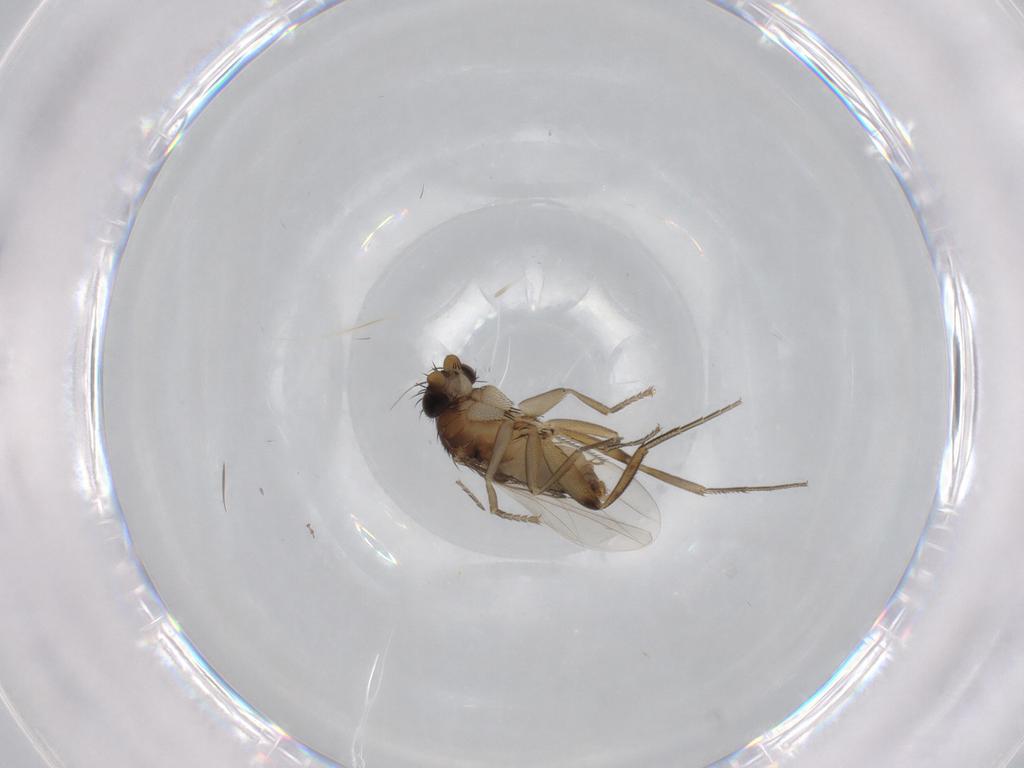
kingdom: Animalia
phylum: Arthropoda
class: Insecta
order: Diptera
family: Phoridae
